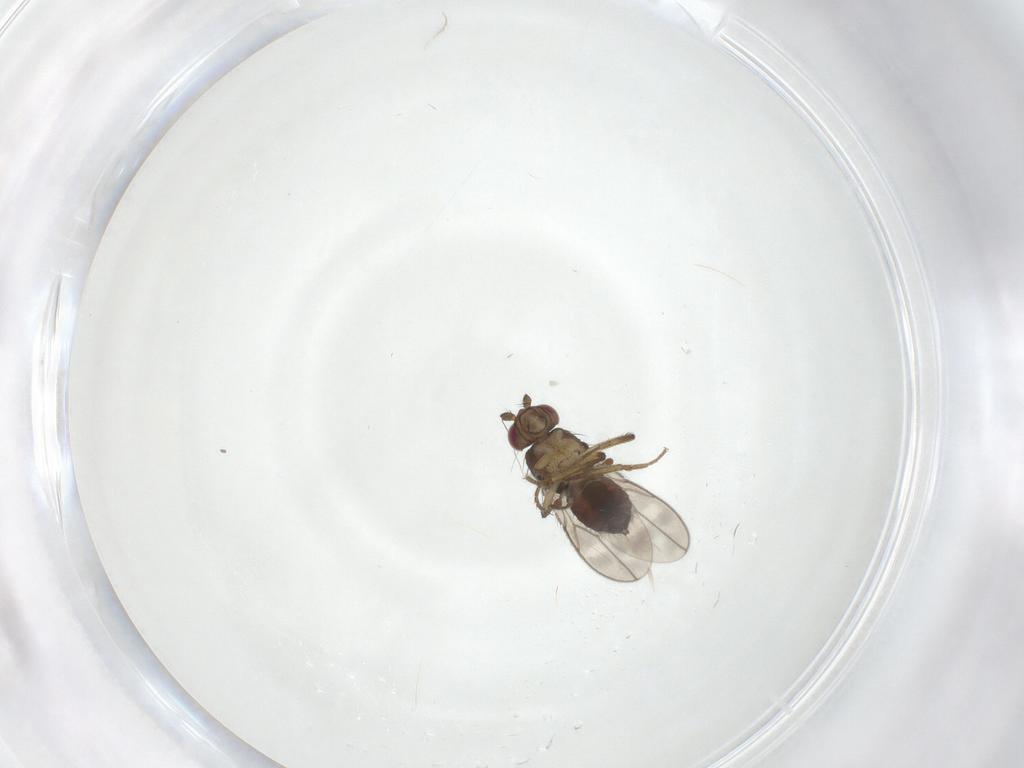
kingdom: Animalia
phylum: Arthropoda
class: Insecta
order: Diptera
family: Sphaeroceridae
